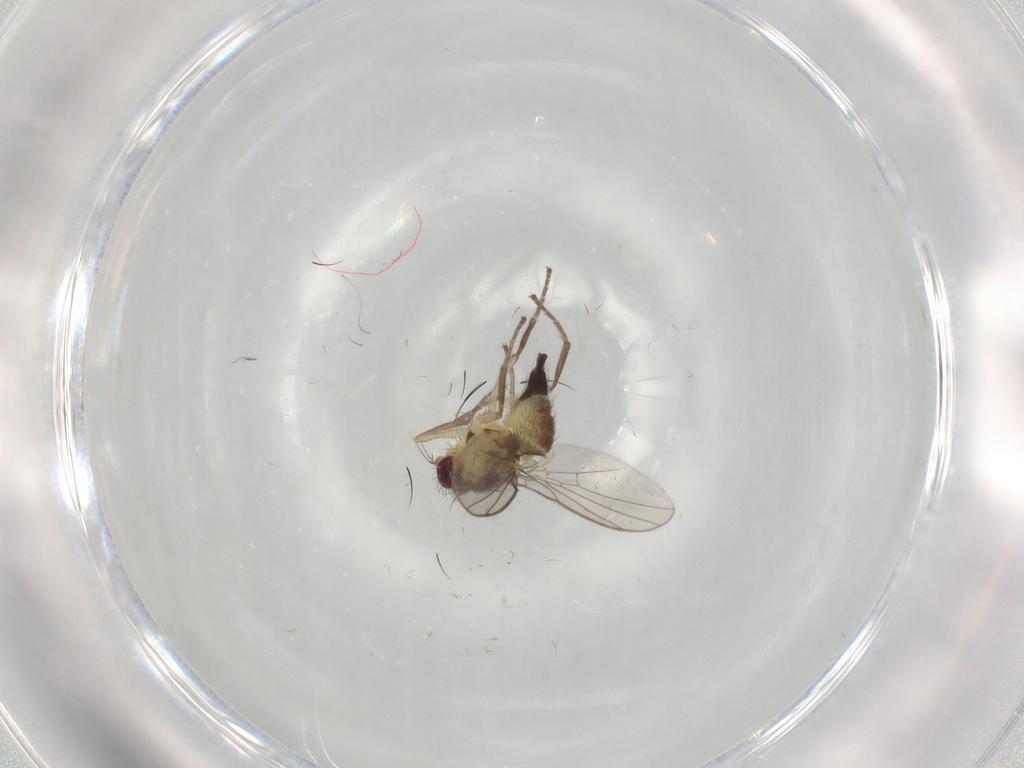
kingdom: Animalia
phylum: Arthropoda
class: Insecta
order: Diptera
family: Agromyzidae
